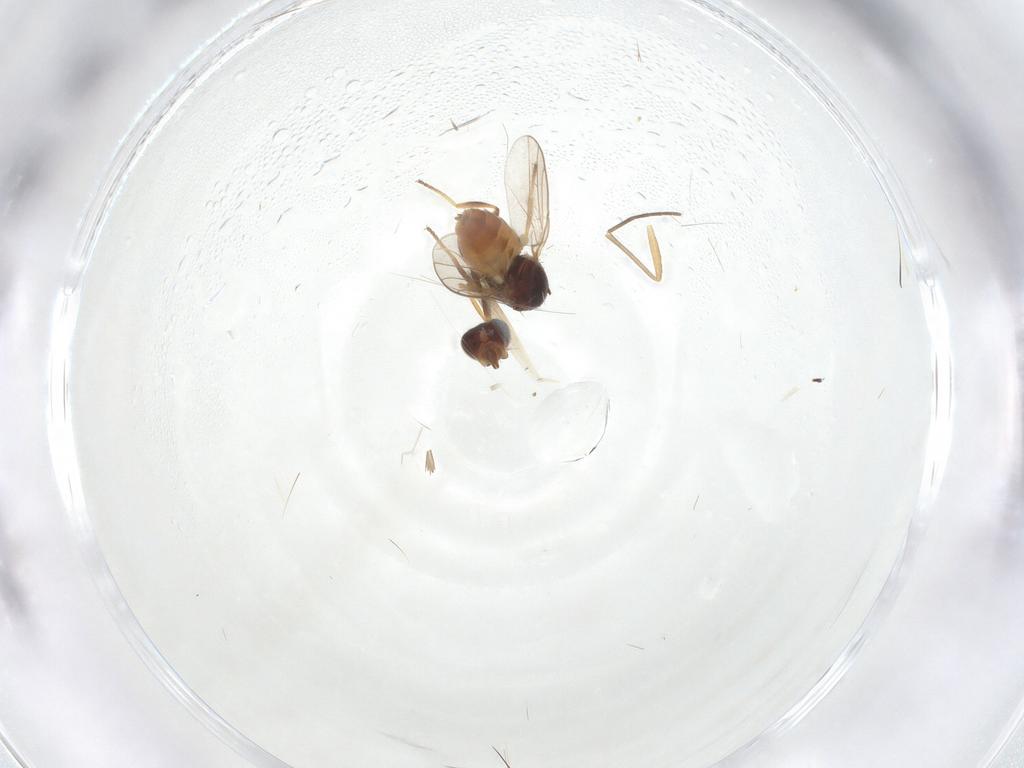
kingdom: Animalia
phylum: Arthropoda
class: Insecta
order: Diptera
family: Chloropidae
